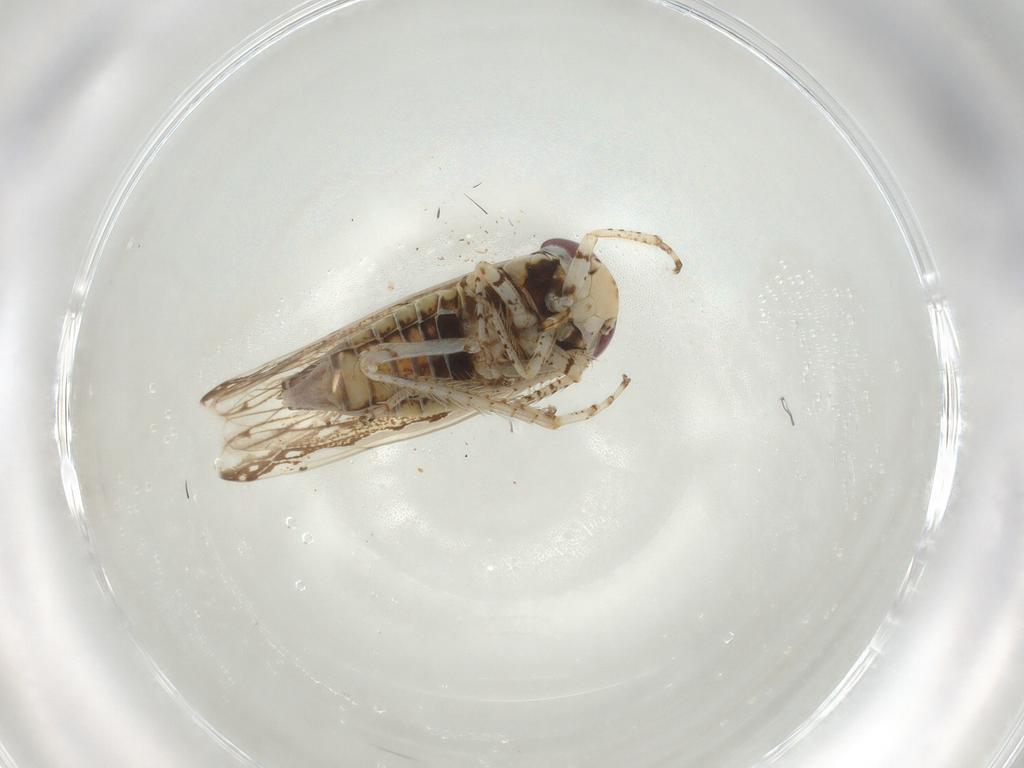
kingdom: Animalia
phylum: Arthropoda
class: Insecta
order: Hemiptera
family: Cicadellidae
